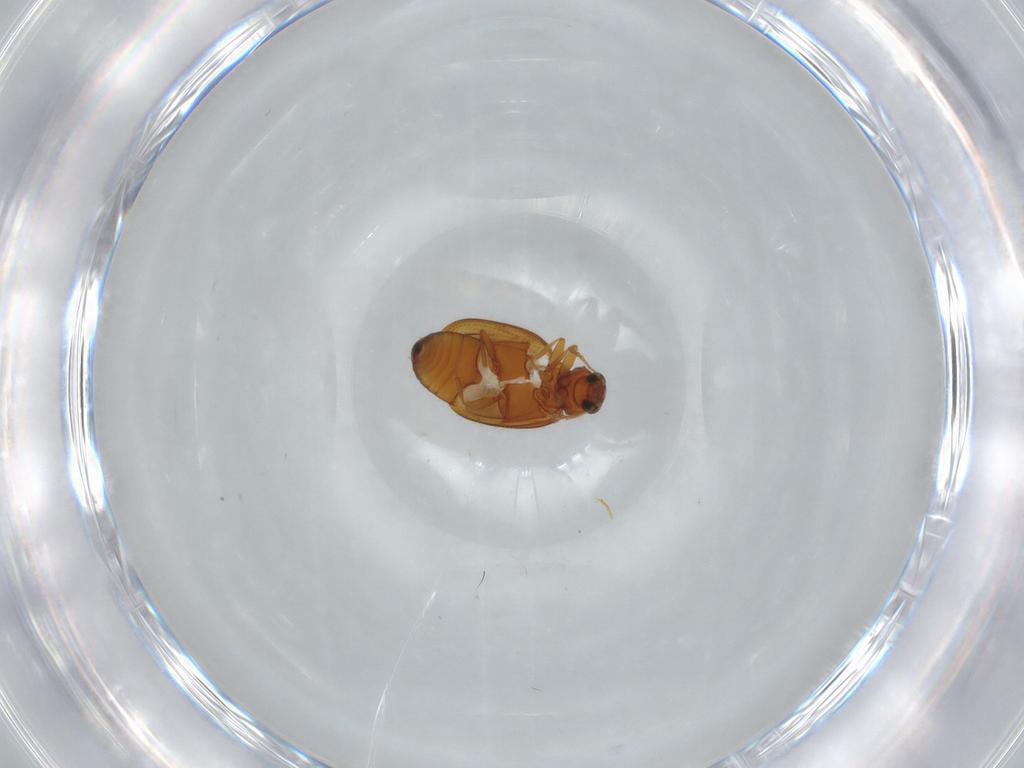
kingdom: Animalia
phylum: Arthropoda
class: Insecta
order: Coleoptera
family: Latridiidae
